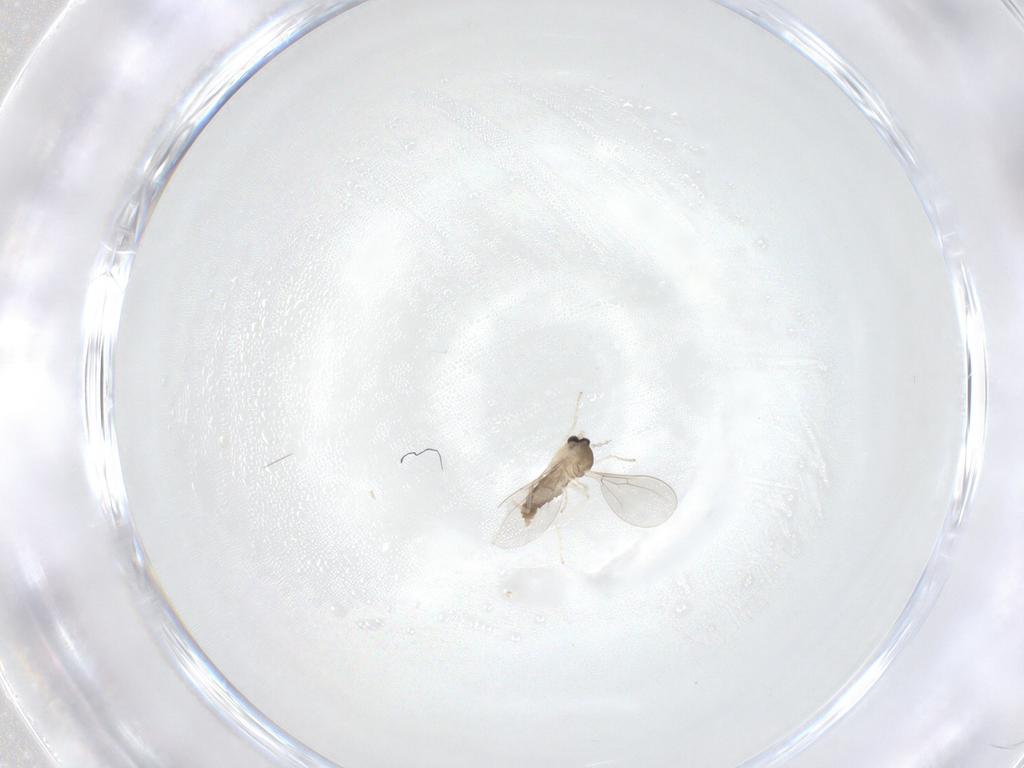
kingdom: Animalia
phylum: Arthropoda
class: Insecta
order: Diptera
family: Cecidomyiidae
